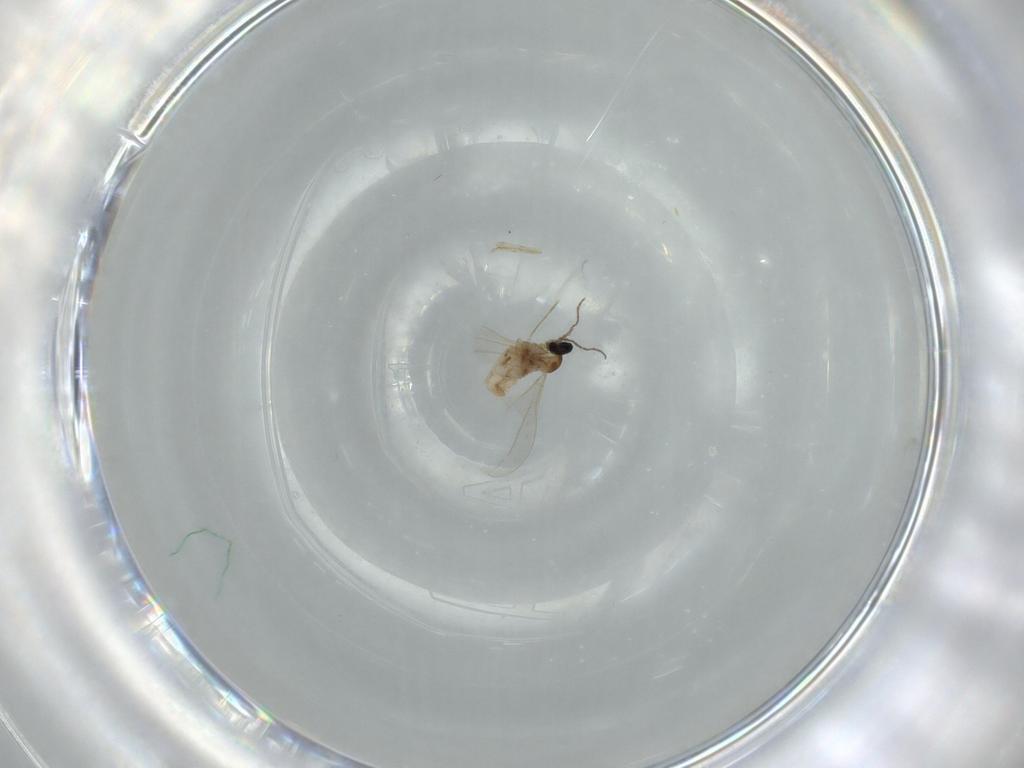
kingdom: Animalia
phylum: Arthropoda
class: Insecta
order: Diptera
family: Cecidomyiidae
